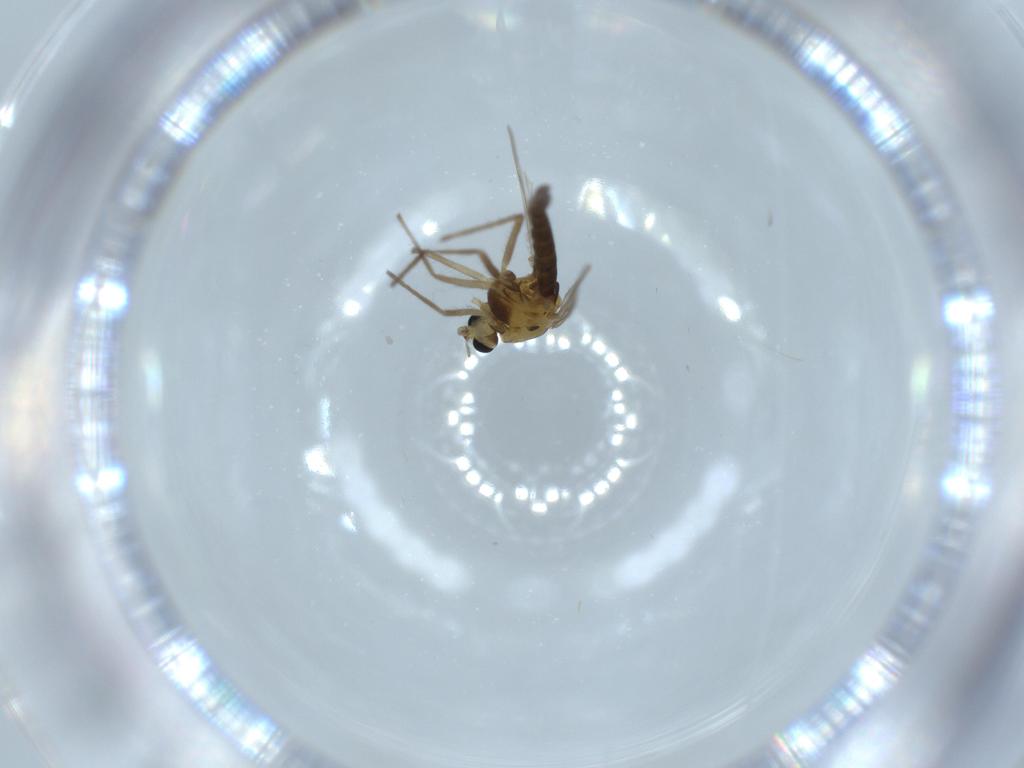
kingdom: Animalia
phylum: Arthropoda
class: Insecta
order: Diptera
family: Chironomidae
